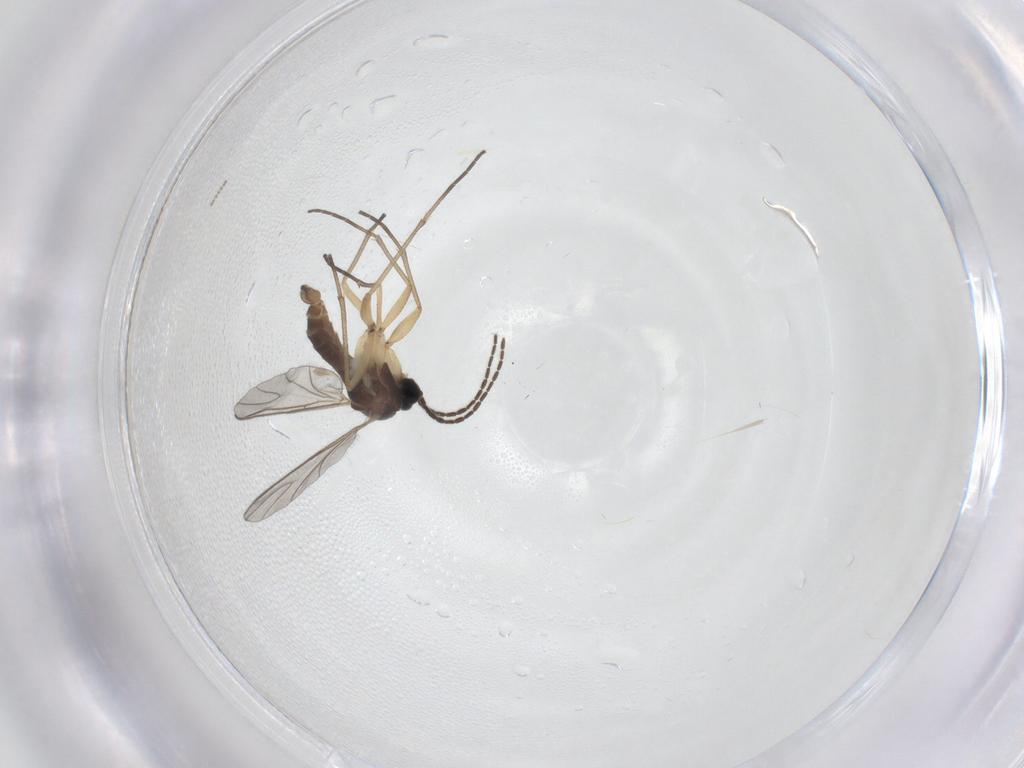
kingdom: Animalia
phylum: Arthropoda
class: Insecta
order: Diptera
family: Sciaridae
